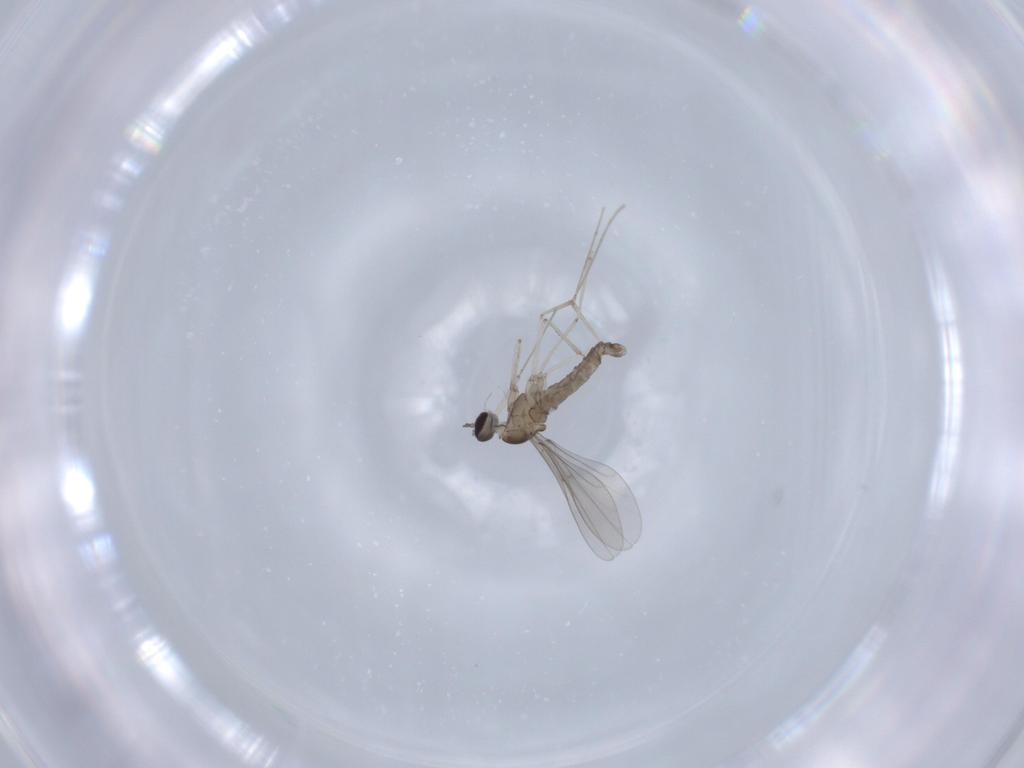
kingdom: Animalia
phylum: Arthropoda
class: Insecta
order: Diptera
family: Cecidomyiidae
